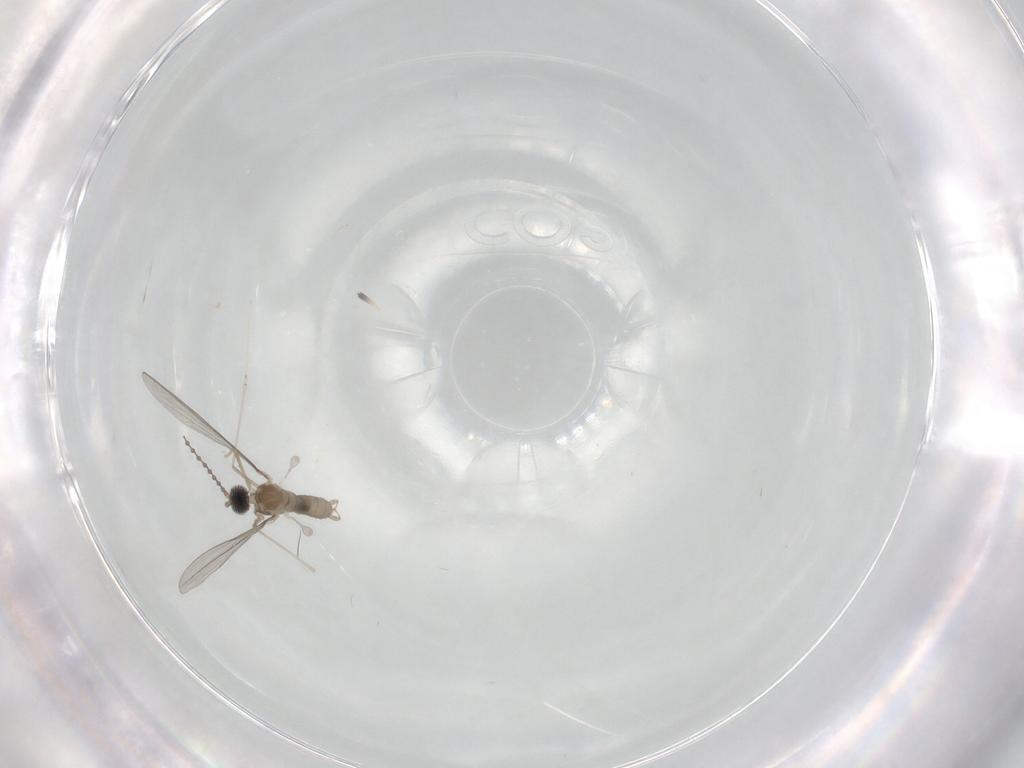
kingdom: Animalia
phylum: Arthropoda
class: Insecta
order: Diptera
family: Cecidomyiidae
